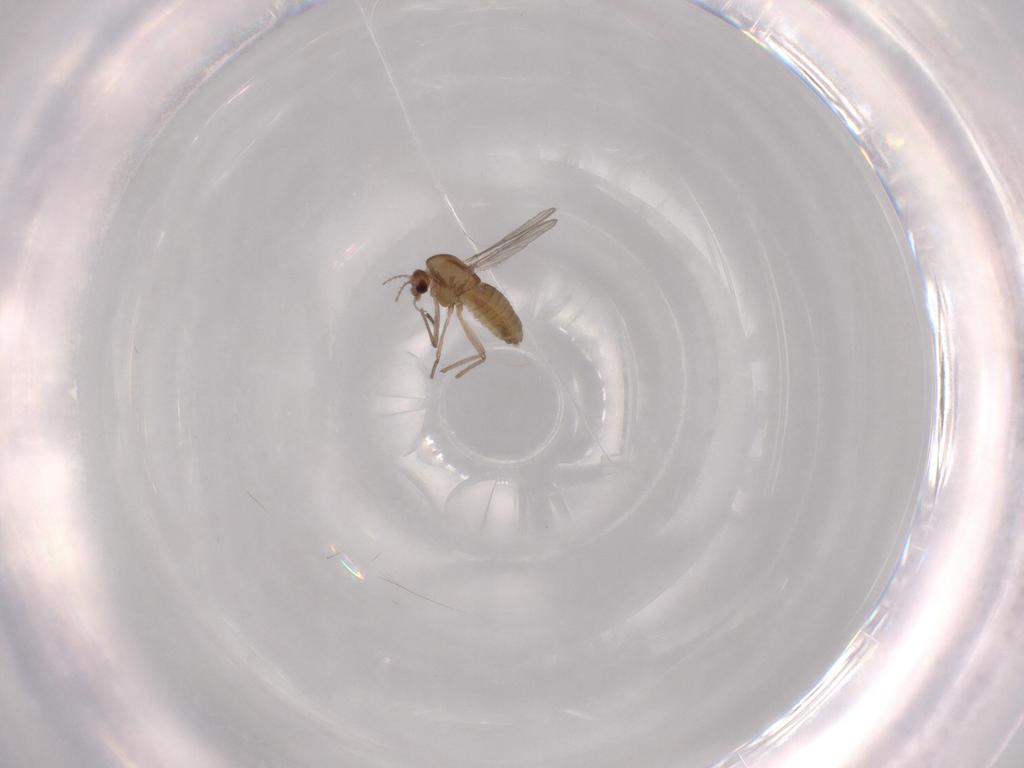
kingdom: Animalia
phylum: Arthropoda
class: Insecta
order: Diptera
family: Chironomidae
